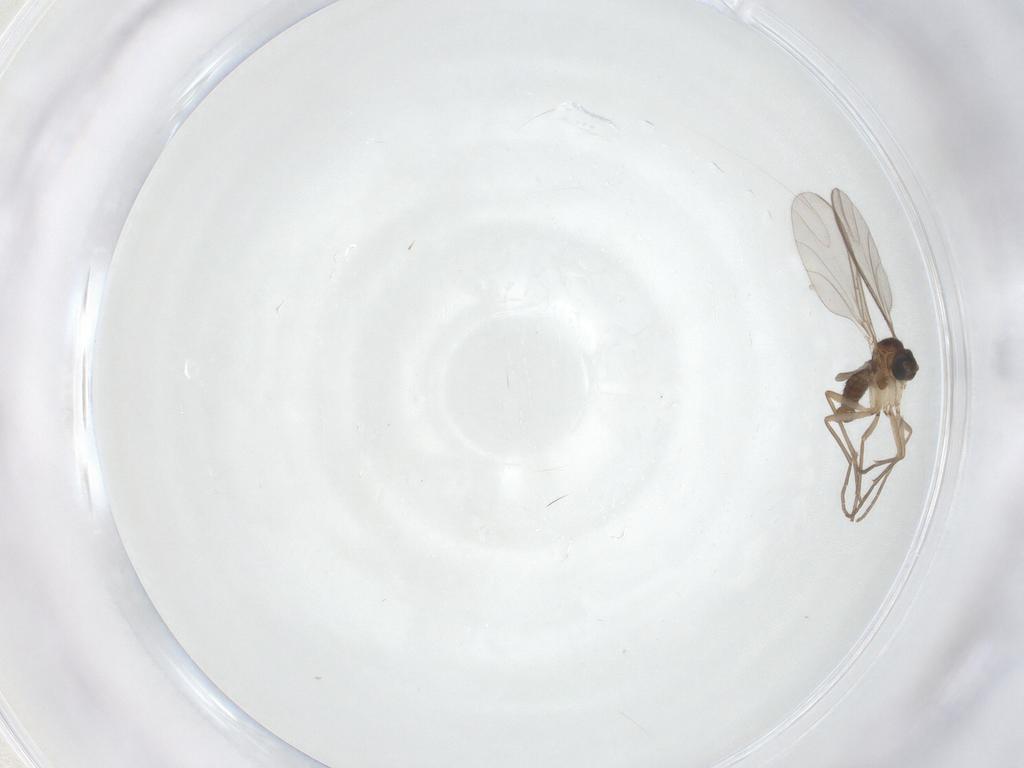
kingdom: Animalia
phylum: Arthropoda
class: Insecta
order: Diptera
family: Sciaridae
